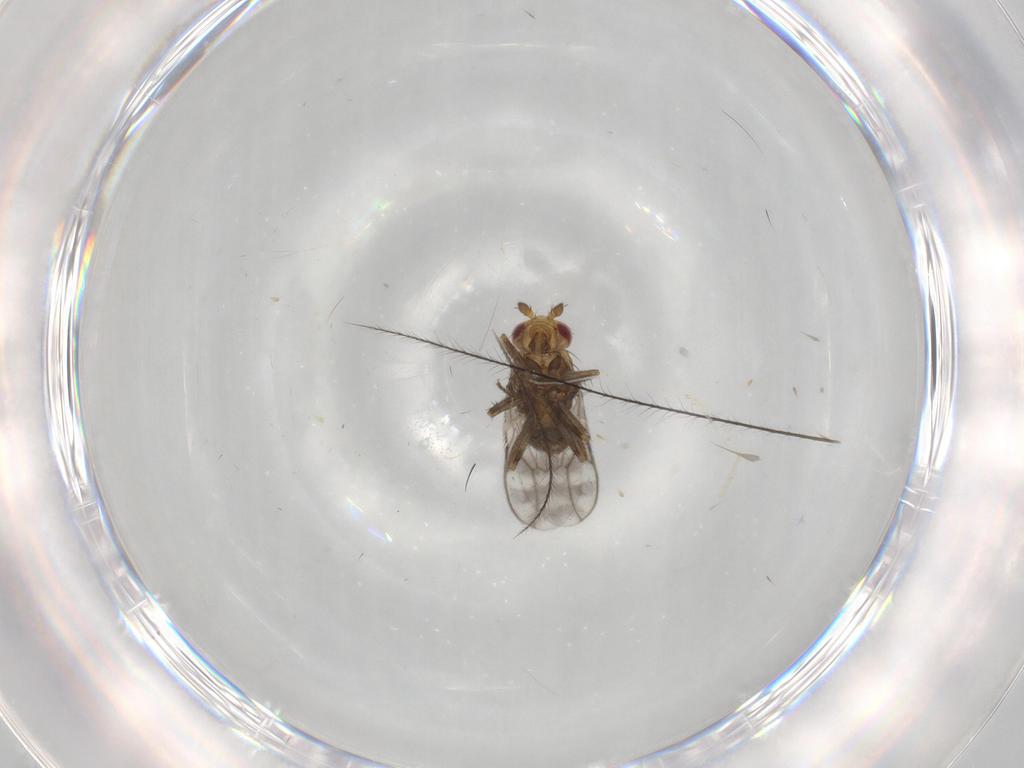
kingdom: Animalia
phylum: Arthropoda
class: Insecta
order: Diptera
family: Sphaeroceridae
